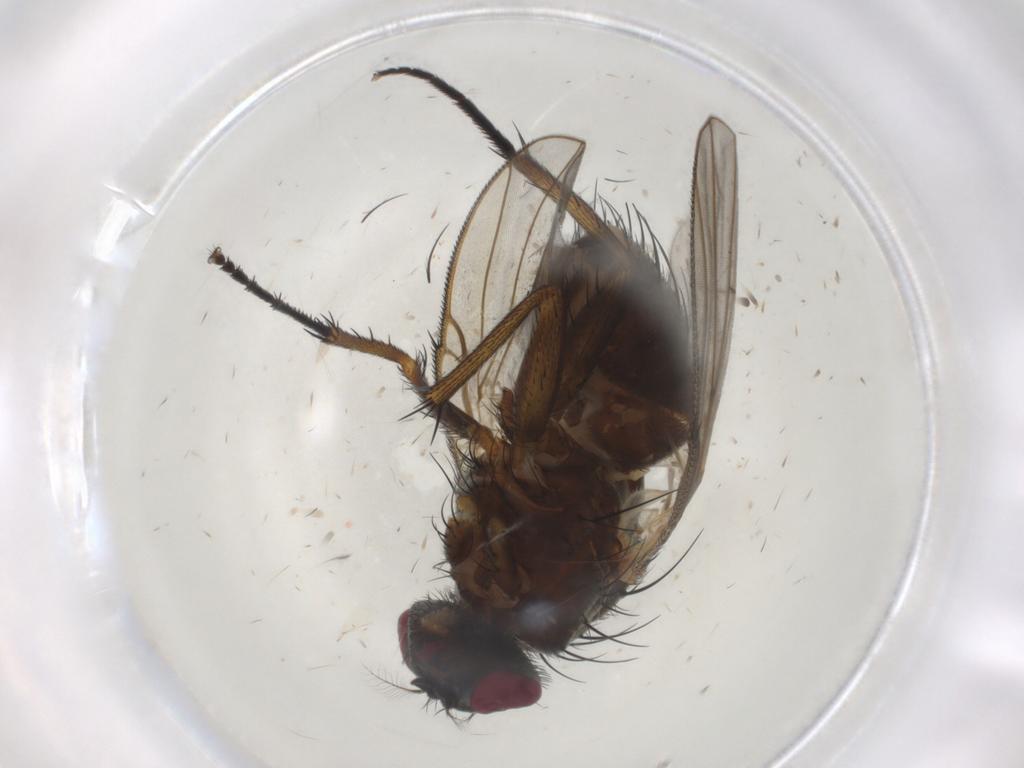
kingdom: Animalia
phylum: Arthropoda
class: Insecta
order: Diptera
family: Tephritidae
